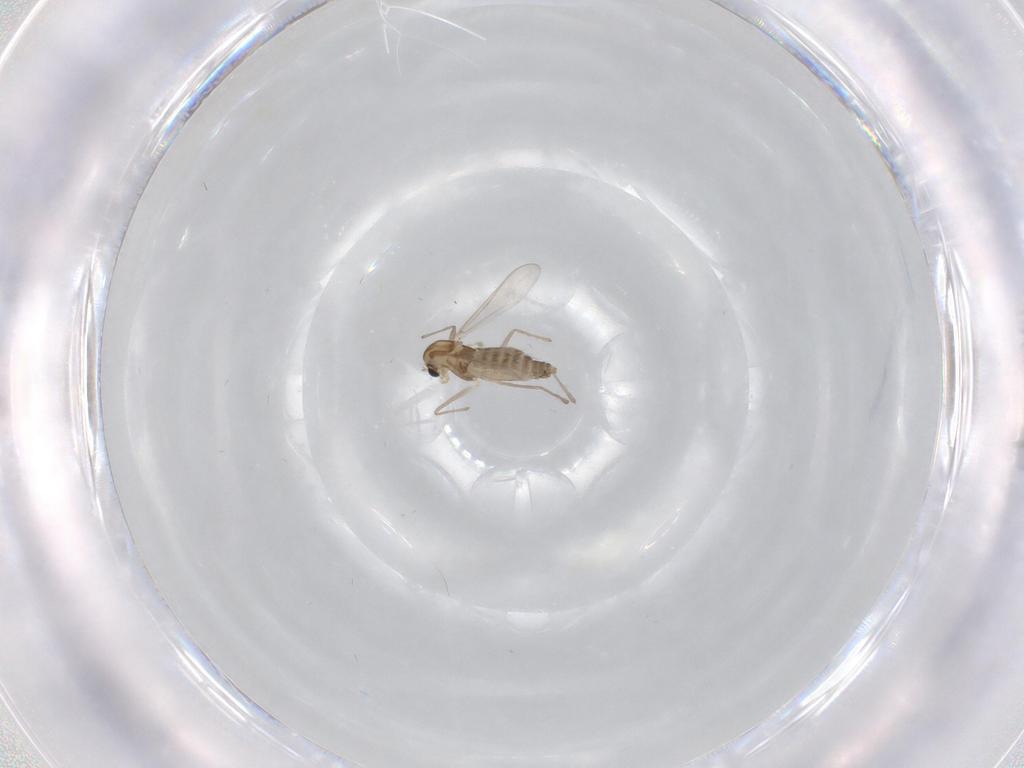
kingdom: Animalia
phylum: Arthropoda
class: Insecta
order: Diptera
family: Chironomidae
